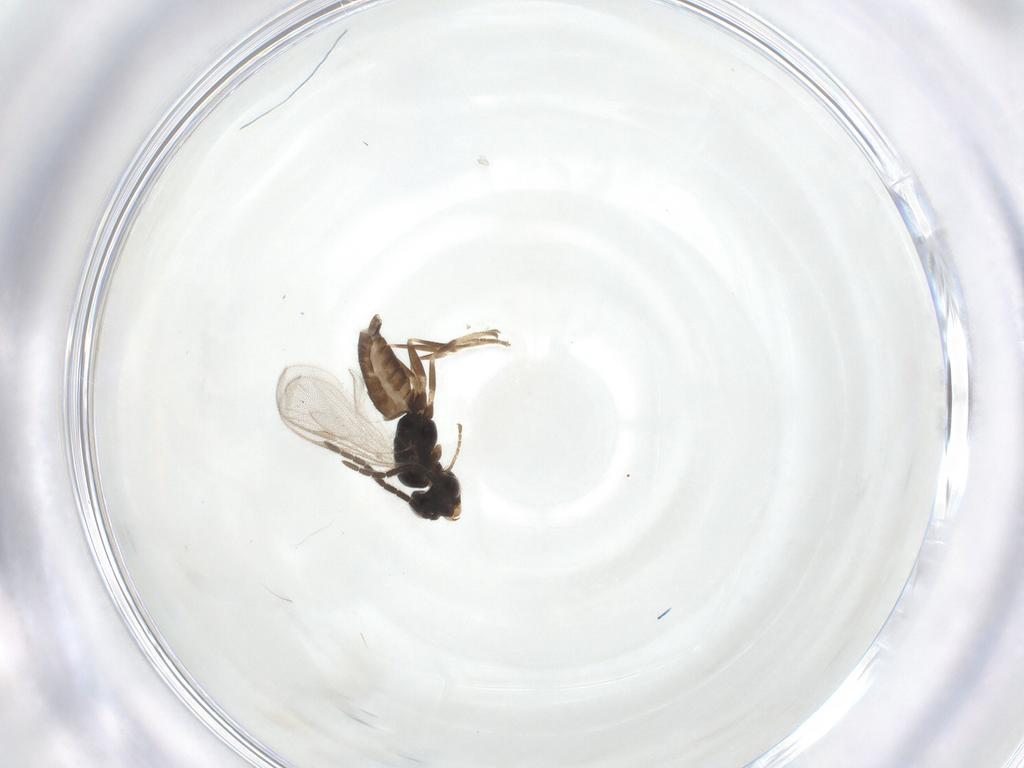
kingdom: Animalia
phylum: Arthropoda
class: Insecta
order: Hymenoptera
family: Dryinidae
